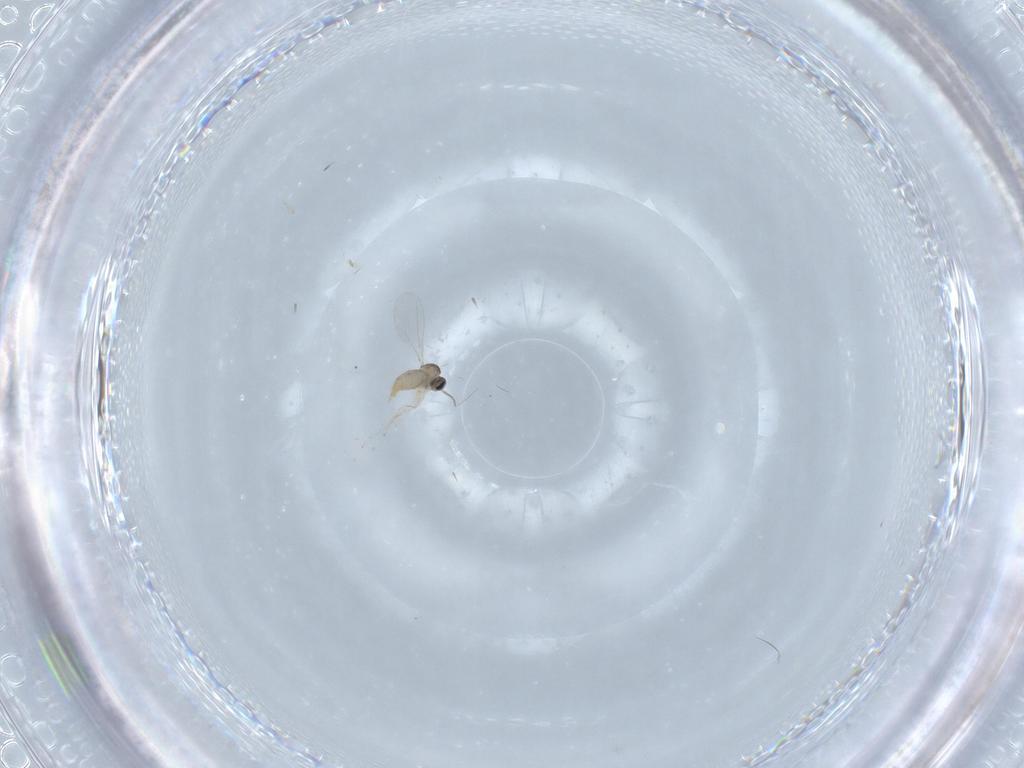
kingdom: Animalia
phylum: Arthropoda
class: Insecta
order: Diptera
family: Cecidomyiidae
